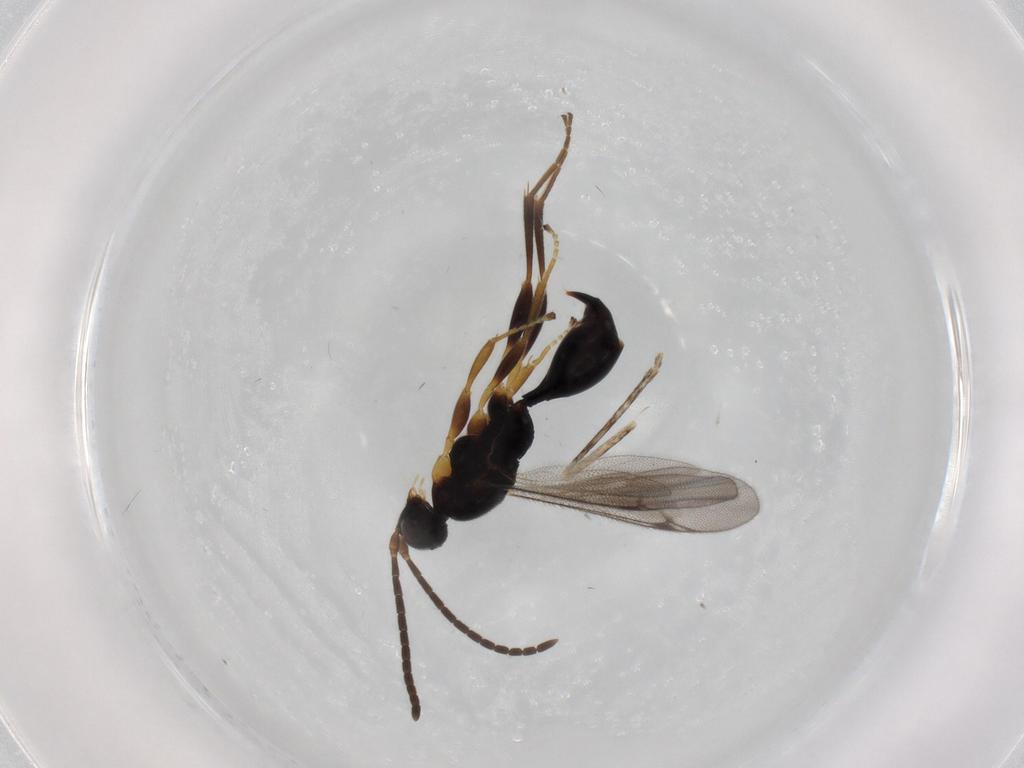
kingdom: Animalia
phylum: Arthropoda
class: Insecta
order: Hymenoptera
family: Proctotrupidae
